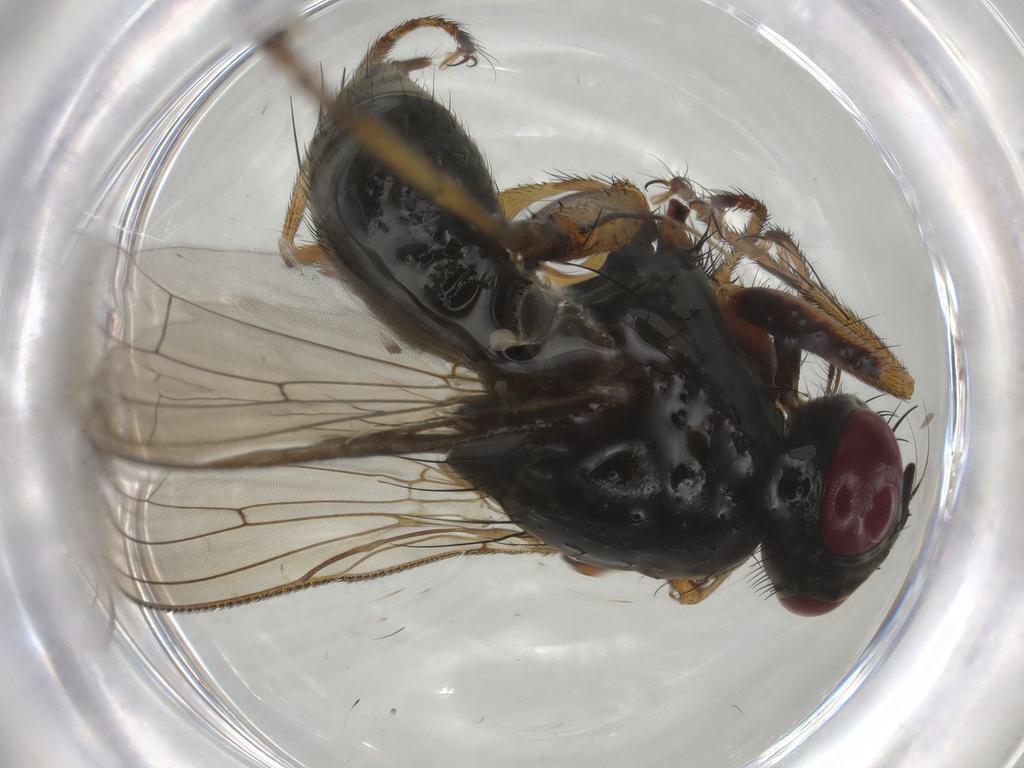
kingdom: Animalia
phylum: Arthropoda
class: Insecta
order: Diptera
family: Muscidae
